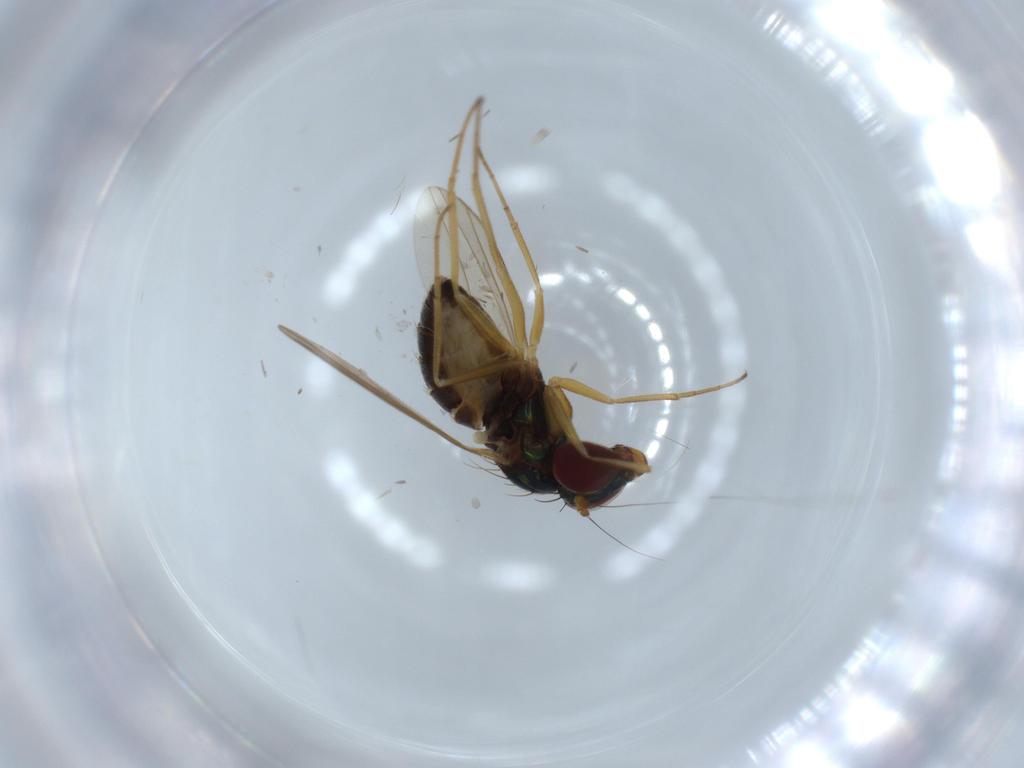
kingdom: Animalia
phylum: Arthropoda
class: Insecta
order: Diptera
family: Dolichopodidae
